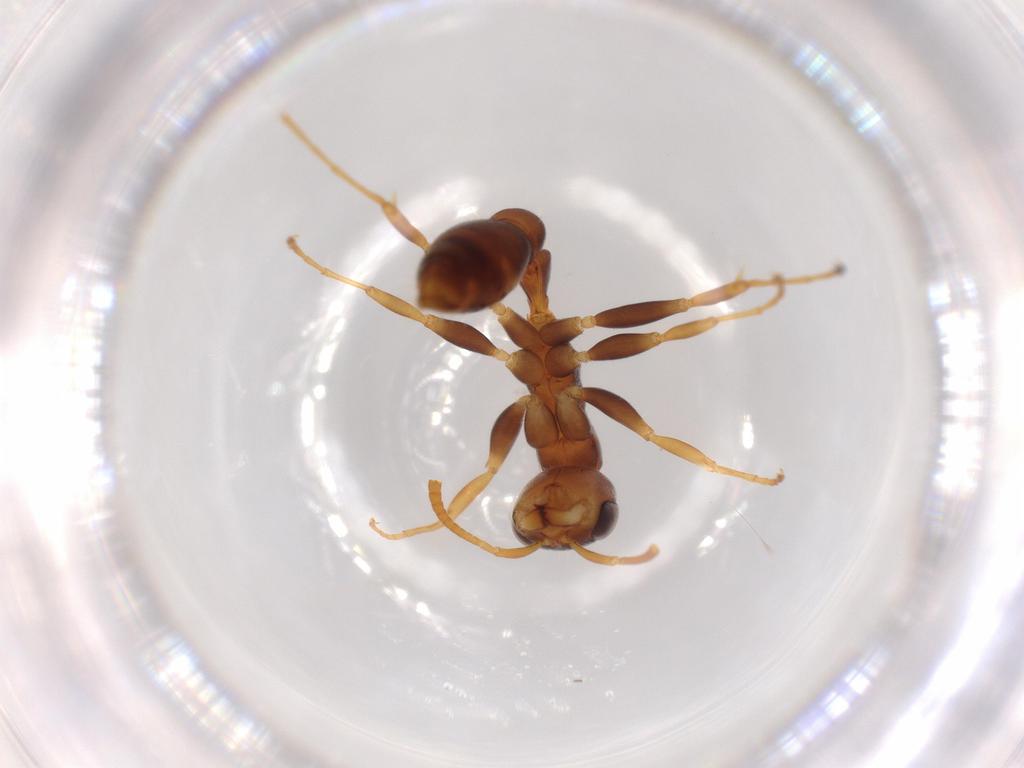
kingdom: Animalia
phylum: Arthropoda
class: Insecta
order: Hymenoptera
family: Formicidae
